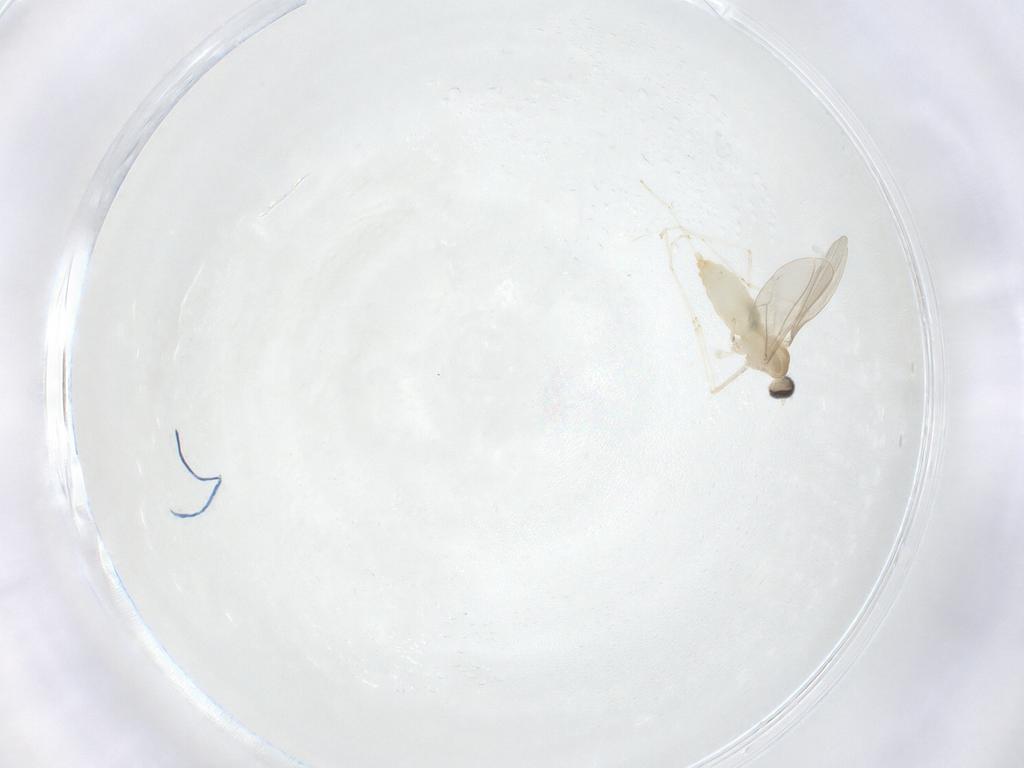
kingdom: Animalia
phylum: Arthropoda
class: Insecta
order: Diptera
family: Cecidomyiidae
